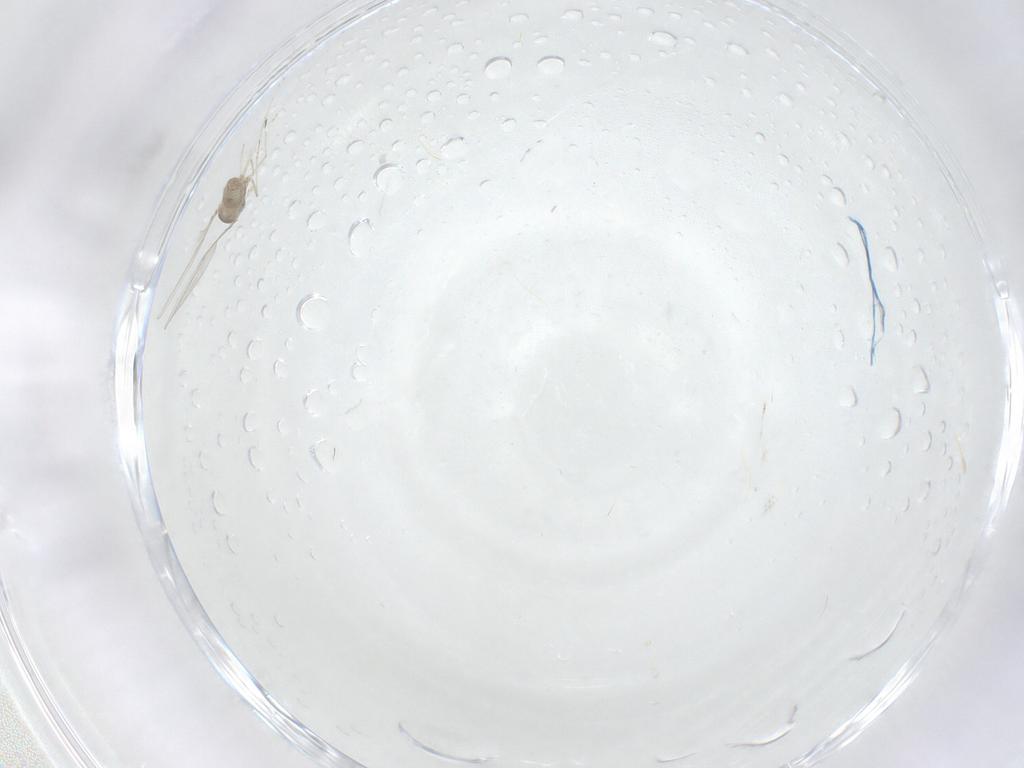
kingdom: Animalia
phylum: Arthropoda
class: Insecta
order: Diptera
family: Cecidomyiidae
